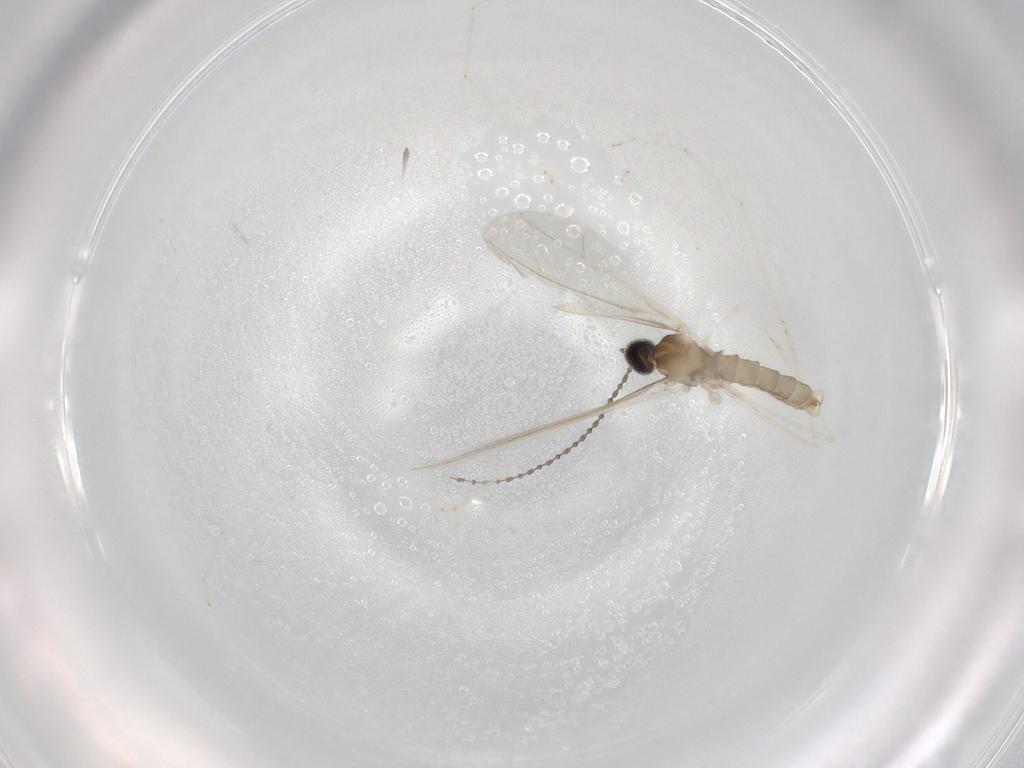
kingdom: Animalia
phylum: Arthropoda
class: Insecta
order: Diptera
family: Cecidomyiidae
